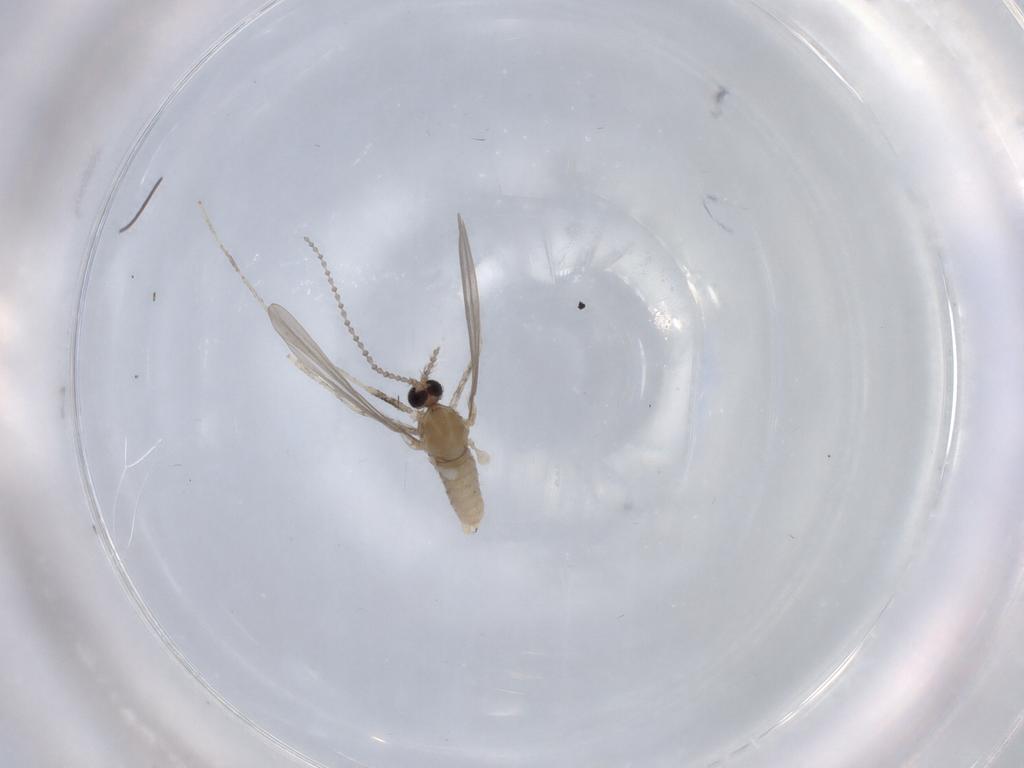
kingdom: Animalia
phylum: Arthropoda
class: Insecta
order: Diptera
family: Cecidomyiidae
